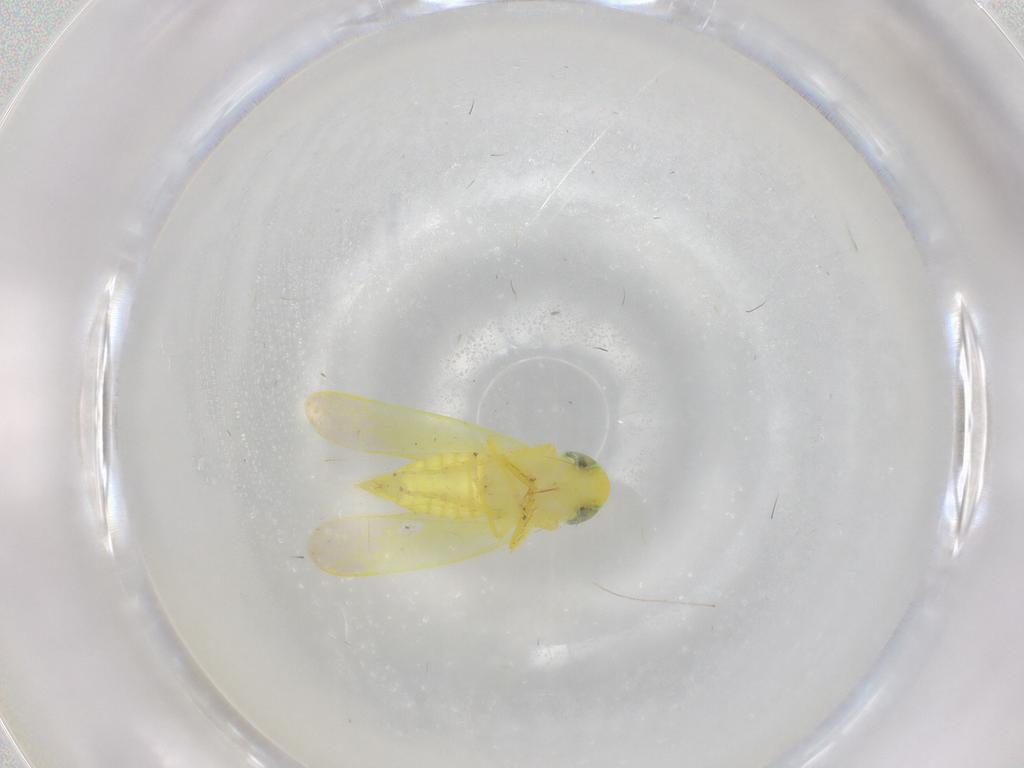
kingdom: Animalia
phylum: Arthropoda
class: Insecta
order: Hemiptera
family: Cicadellidae
